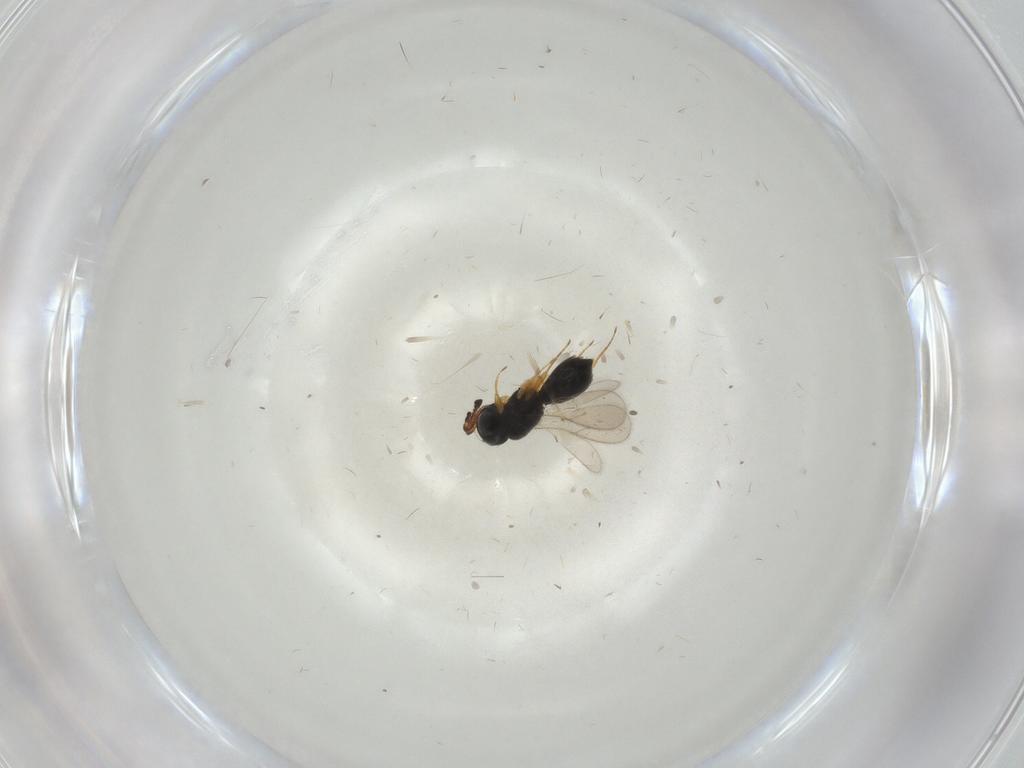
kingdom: Animalia
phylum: Arthropoda
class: Insecta
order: Hymenoptera
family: Scelionidae
